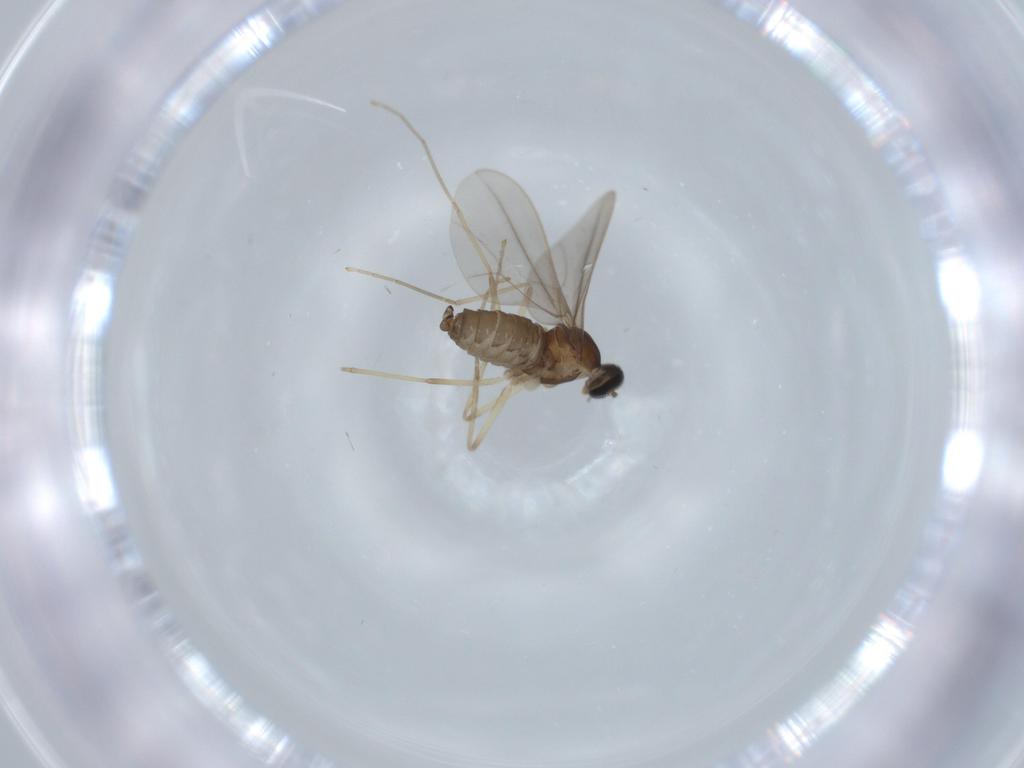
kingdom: Animalia
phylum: Arthropoda
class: Insecta
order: Diptera
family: Cecidomyiidae
